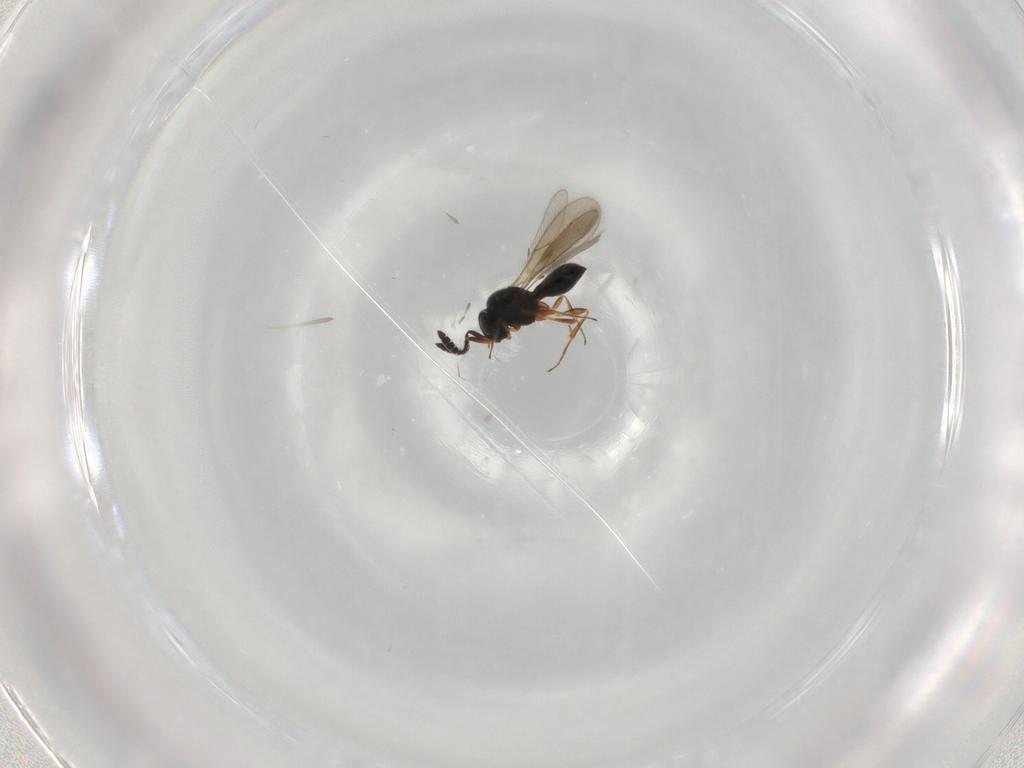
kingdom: Animalia
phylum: Arthropoda
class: Insecta
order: Hymenoptera
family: Scelionidae
